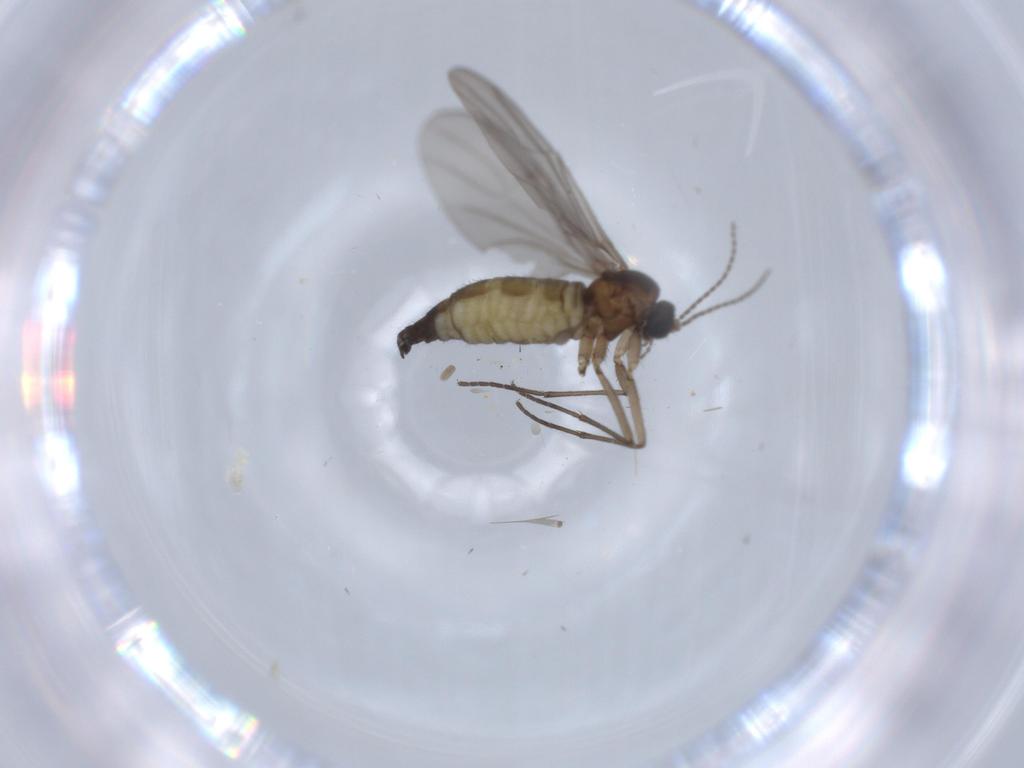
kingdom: Animalia
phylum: Arthropoda
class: Insecta
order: Diptera
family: Sciaridae
